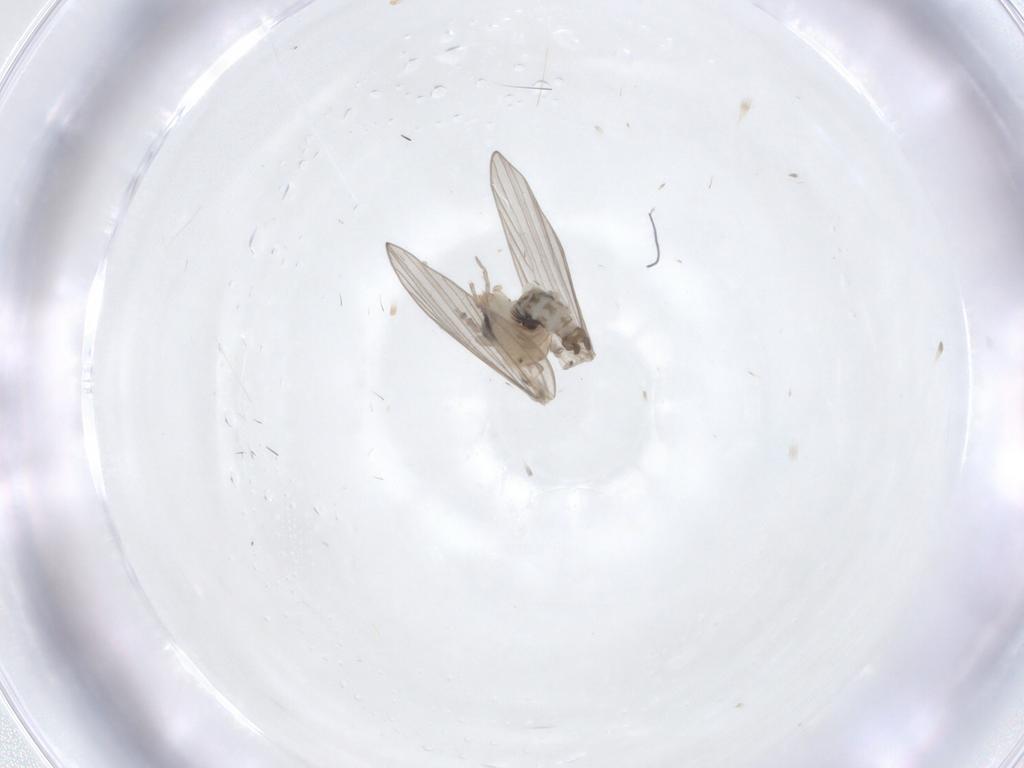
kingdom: Animalia
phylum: Arthropoda
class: Insecta
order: Diptera
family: Psychodidae
